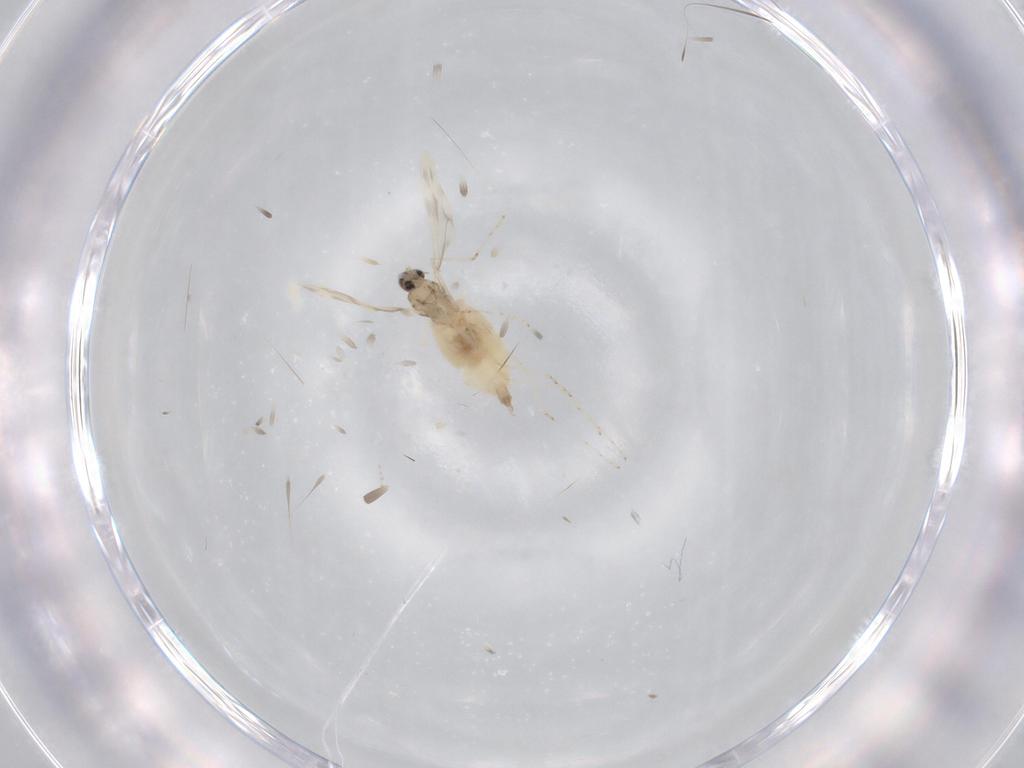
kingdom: Animalia
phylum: Arthropoda
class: Insecta
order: Diptera
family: Cecidomyiidae
